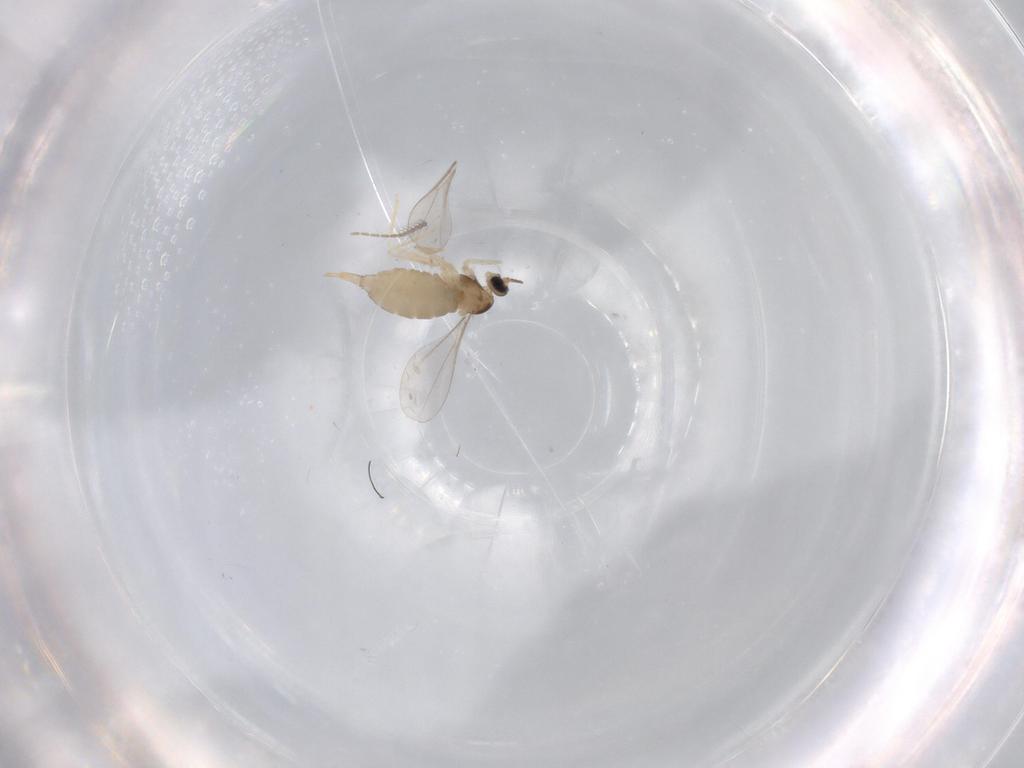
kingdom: Animalia
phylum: Arthropoda
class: Insecta
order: Diptera
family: Ceratopogonidae
